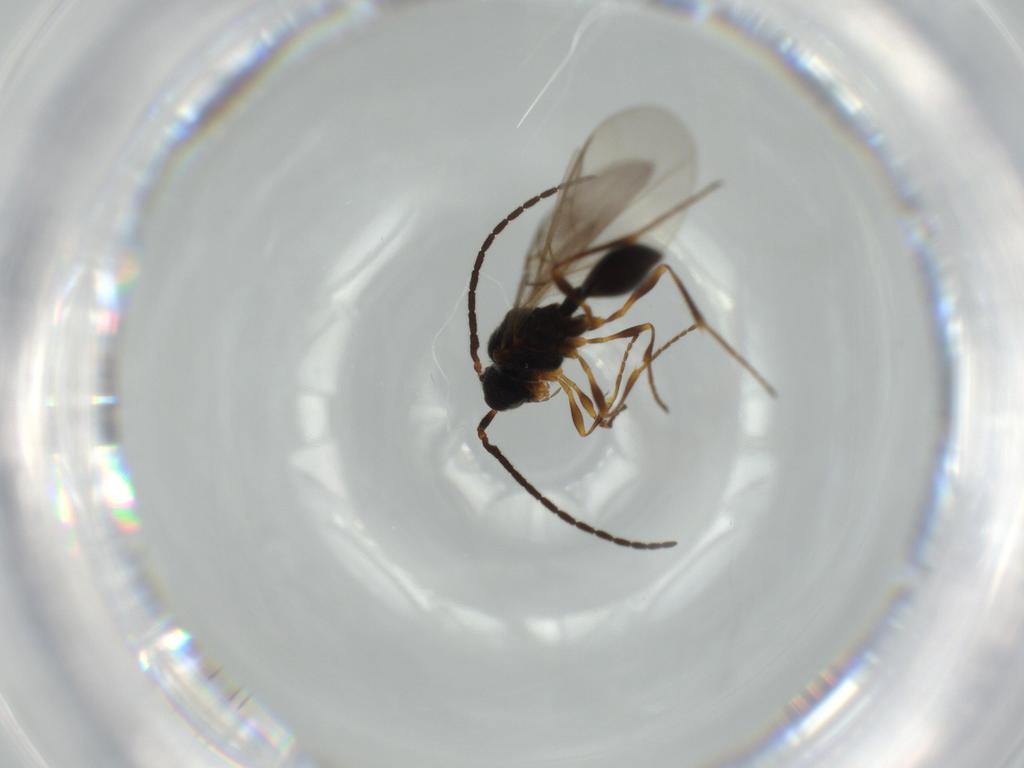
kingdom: Animalia
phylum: Arthropoda
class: Insecta
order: Hymenoptera
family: Diapriidae
